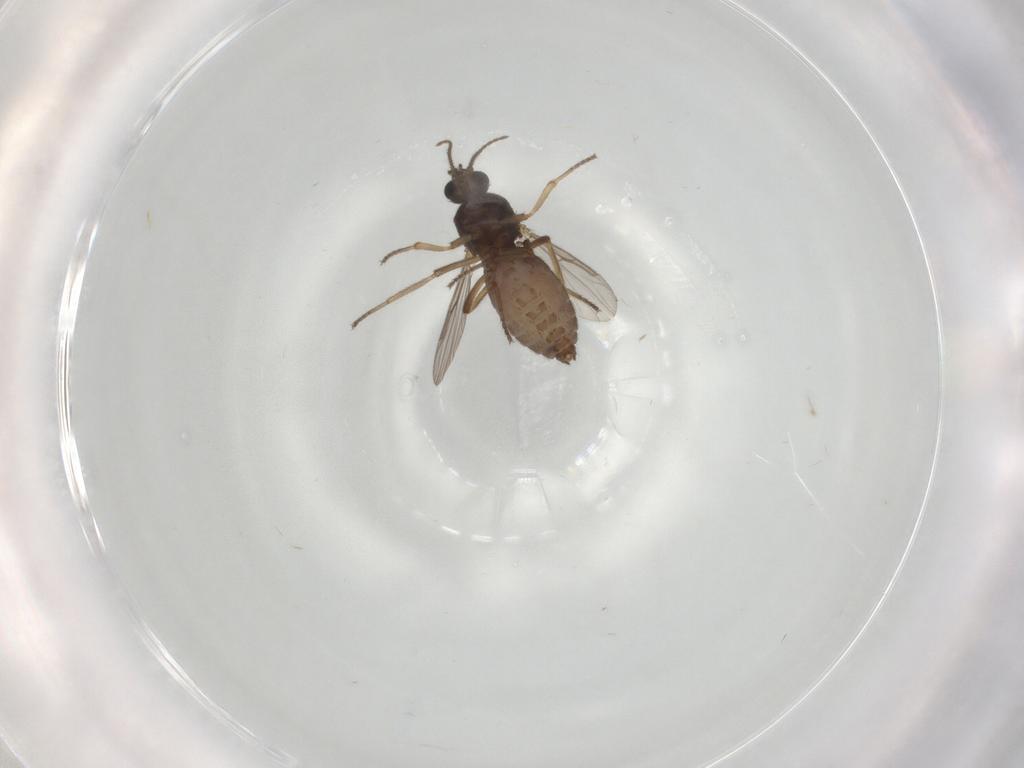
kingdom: Animalia
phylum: Arthropoda
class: Insecta
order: Diptera
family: Ceratopogonidae
